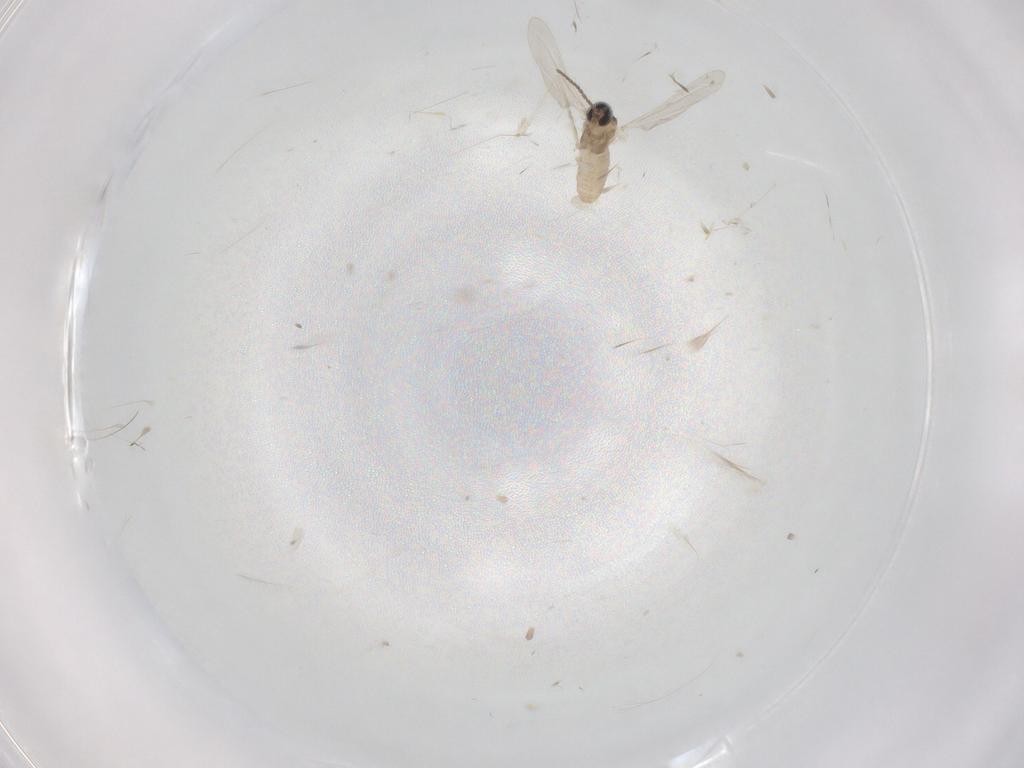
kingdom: Animalia
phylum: Arthropoda
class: Insecta
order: Diptera
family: Cecidomyiidae
